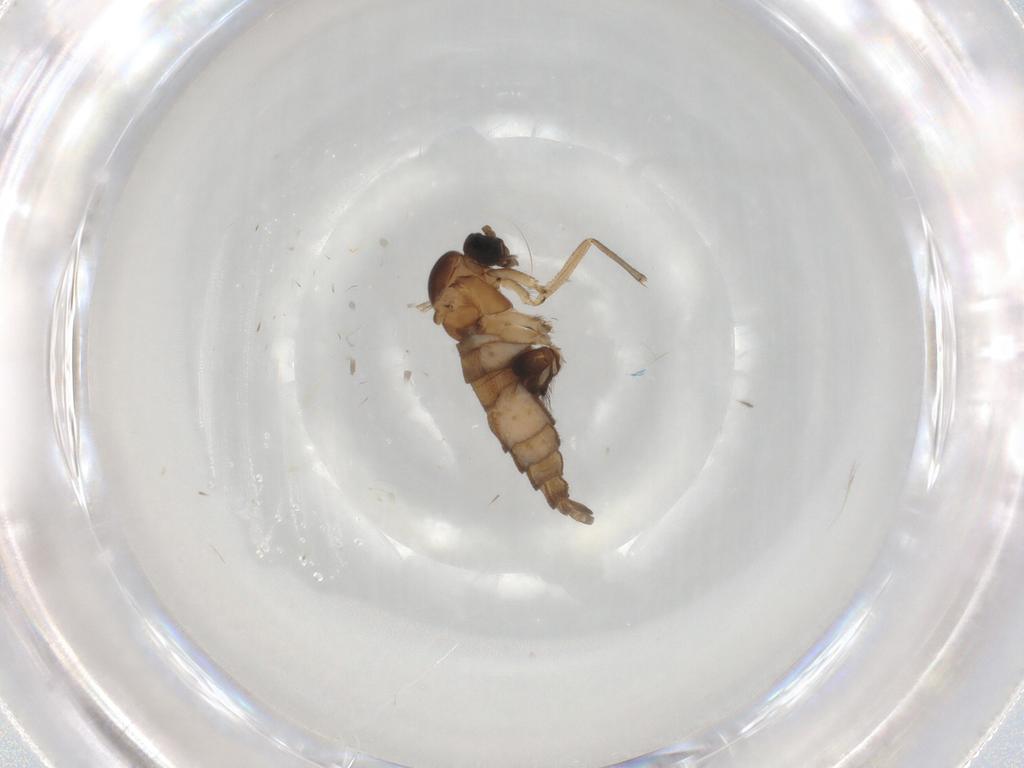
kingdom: Animalia
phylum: Arthropoda
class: Insecta
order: Diptera
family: Sciaridae
